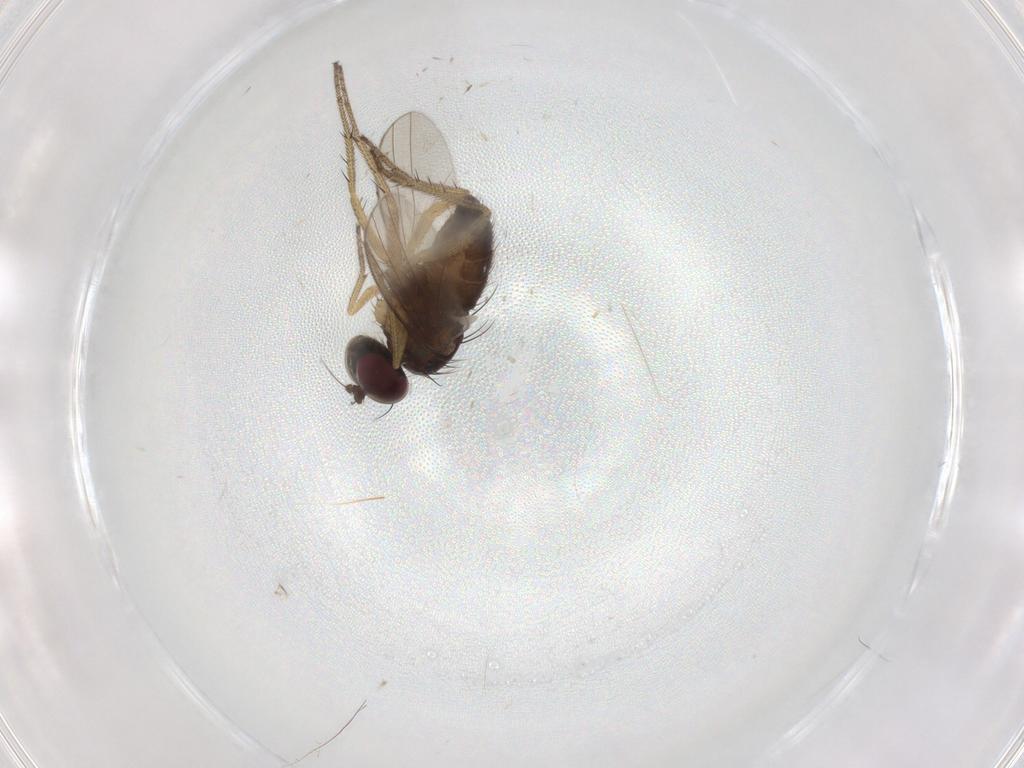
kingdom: Animalia
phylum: Arthropoda
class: Insecta
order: Diptera
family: Dolichopodidae
